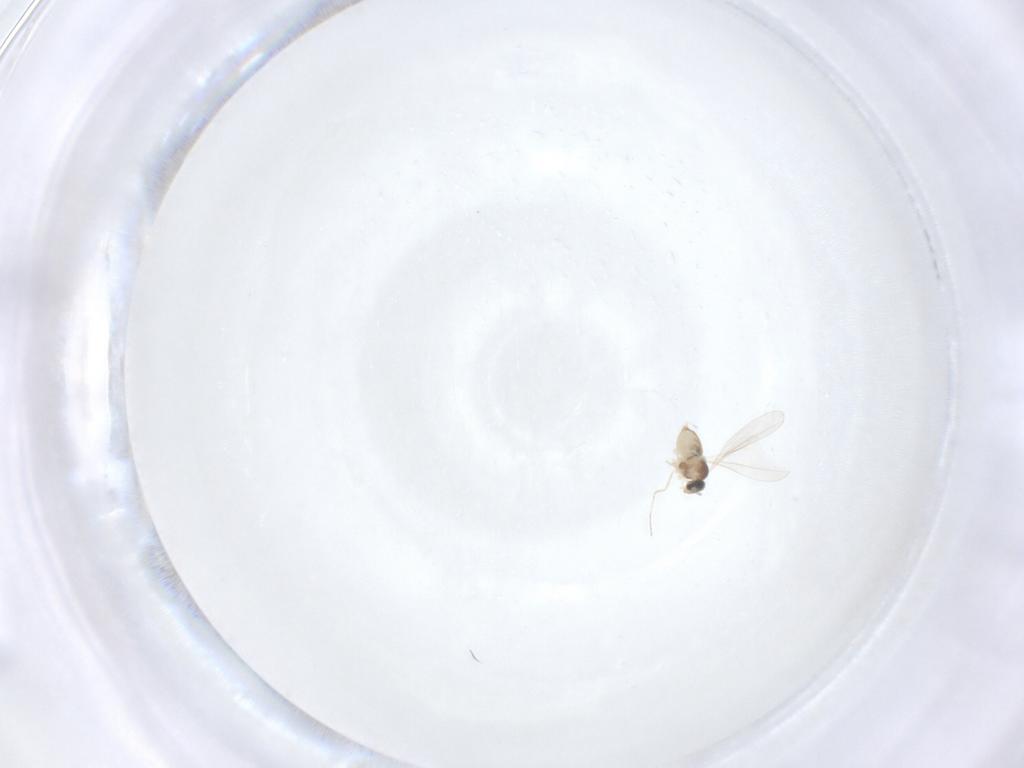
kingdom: Animalia
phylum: Arthropoda
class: Insecta
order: Diptera
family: Cecidomyiidae
